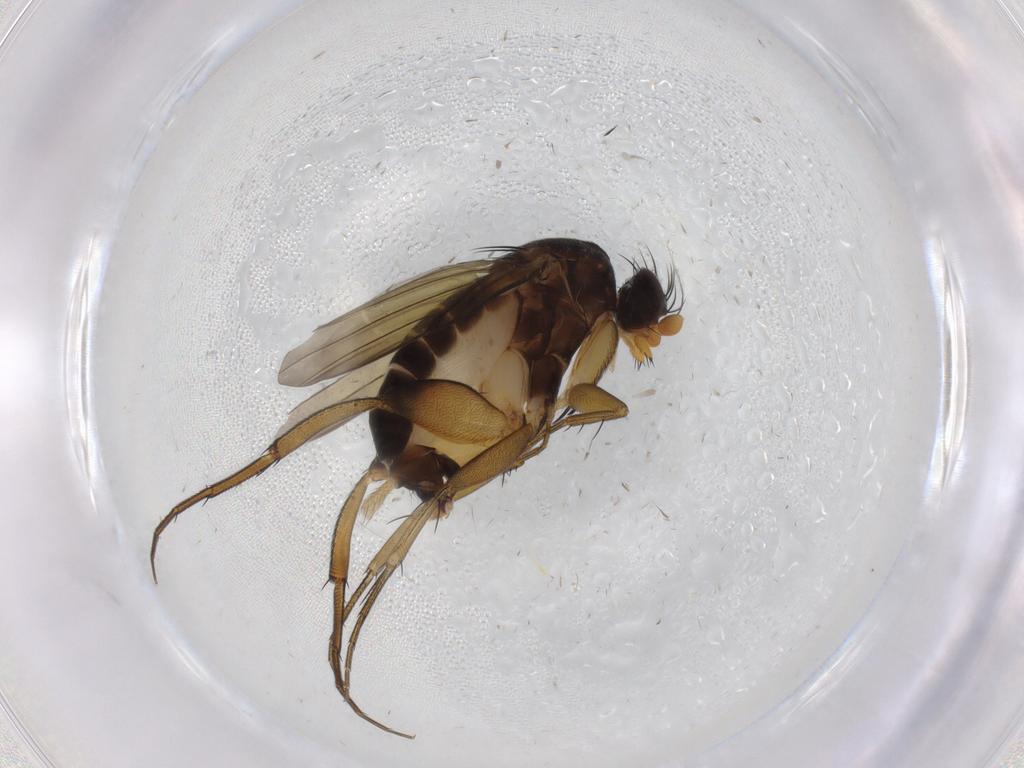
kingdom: Animalia
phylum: Arthropoda
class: Insecta
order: Diptera
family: Phoridae
